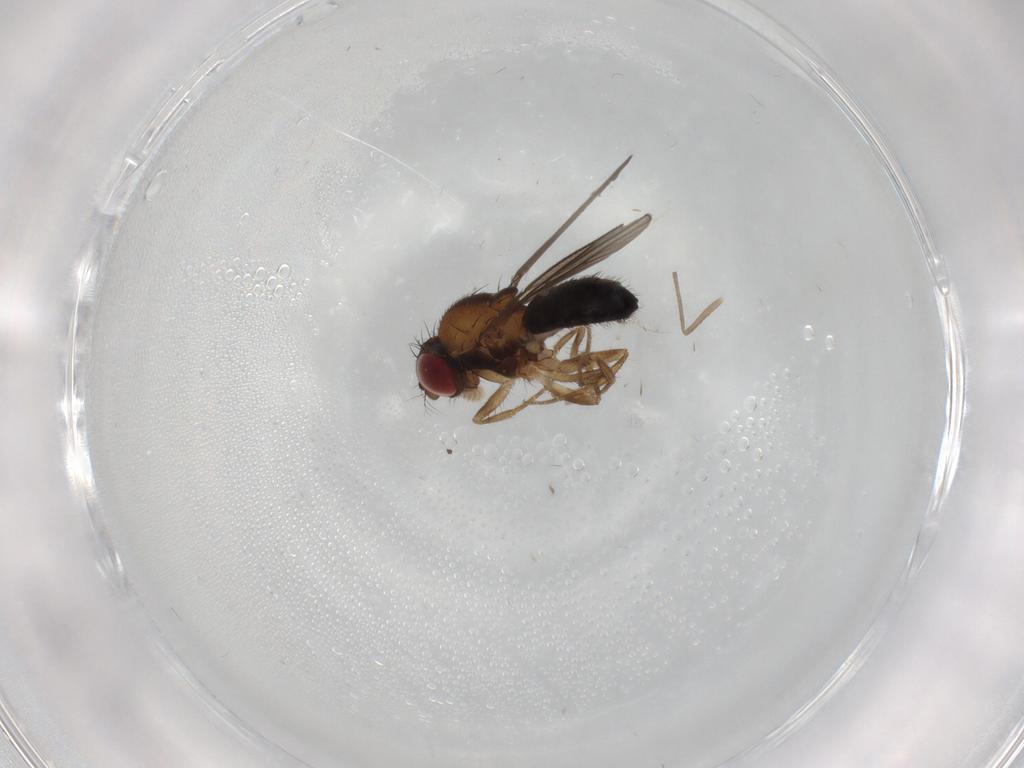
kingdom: Animalia
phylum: Arthropoda
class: Insecta
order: Diptera
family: Drosophilidae
